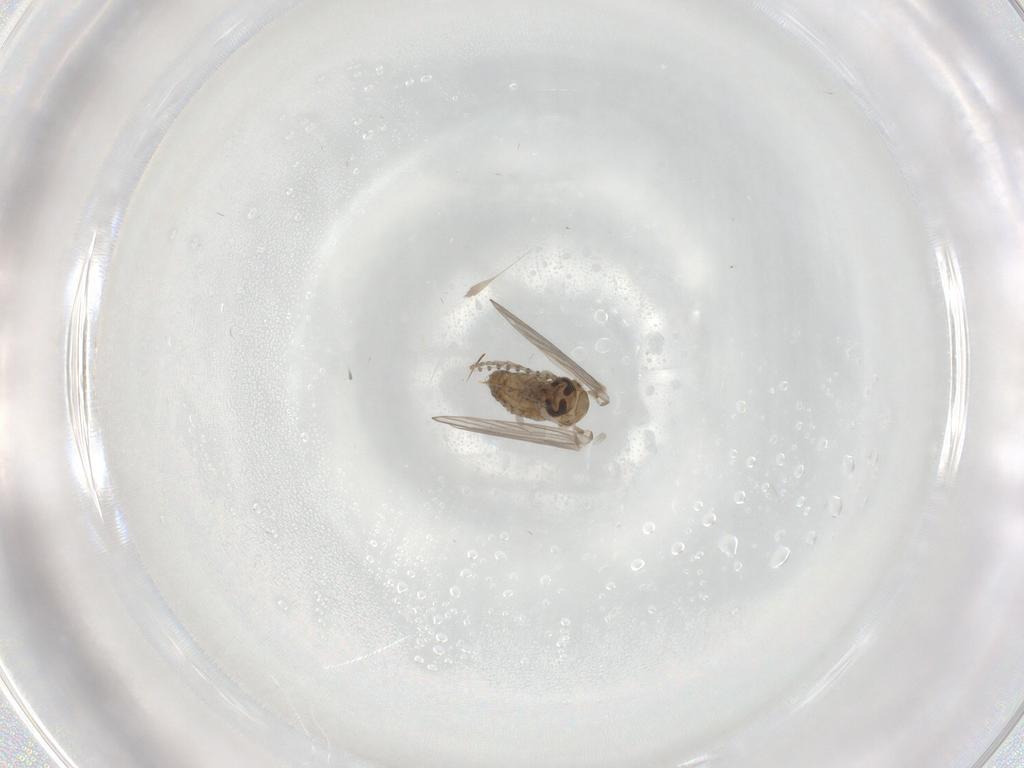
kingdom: Animalia
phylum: Arthropoda
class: Insecta
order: Diptera
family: Psychodidae
